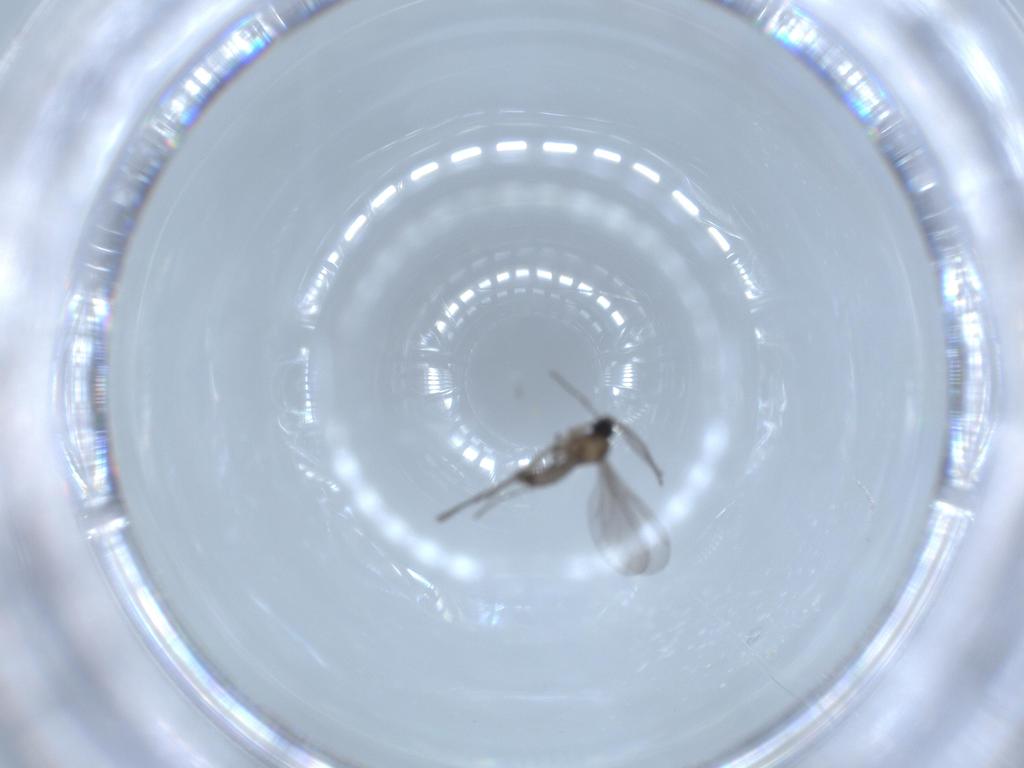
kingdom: Animalia
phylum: Arthropoda
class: Insecta
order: Diptera
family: Sciaridae
